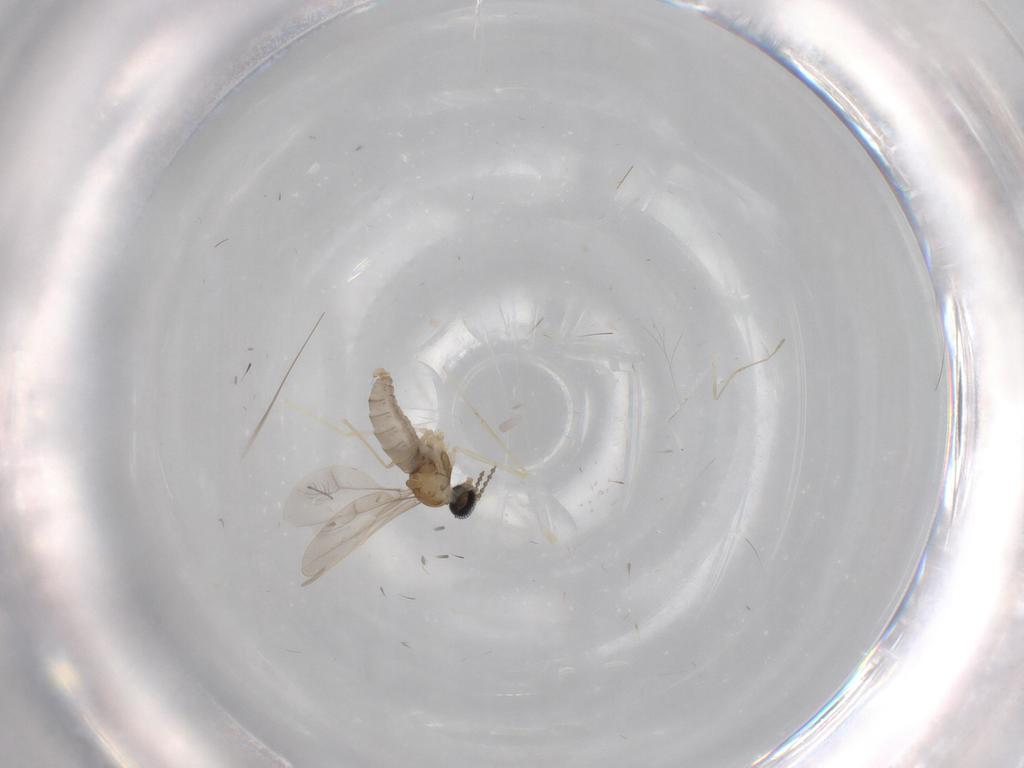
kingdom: Animalia
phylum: Arthropoda
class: Insecta
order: Diptera
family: Cecidomyiidae
